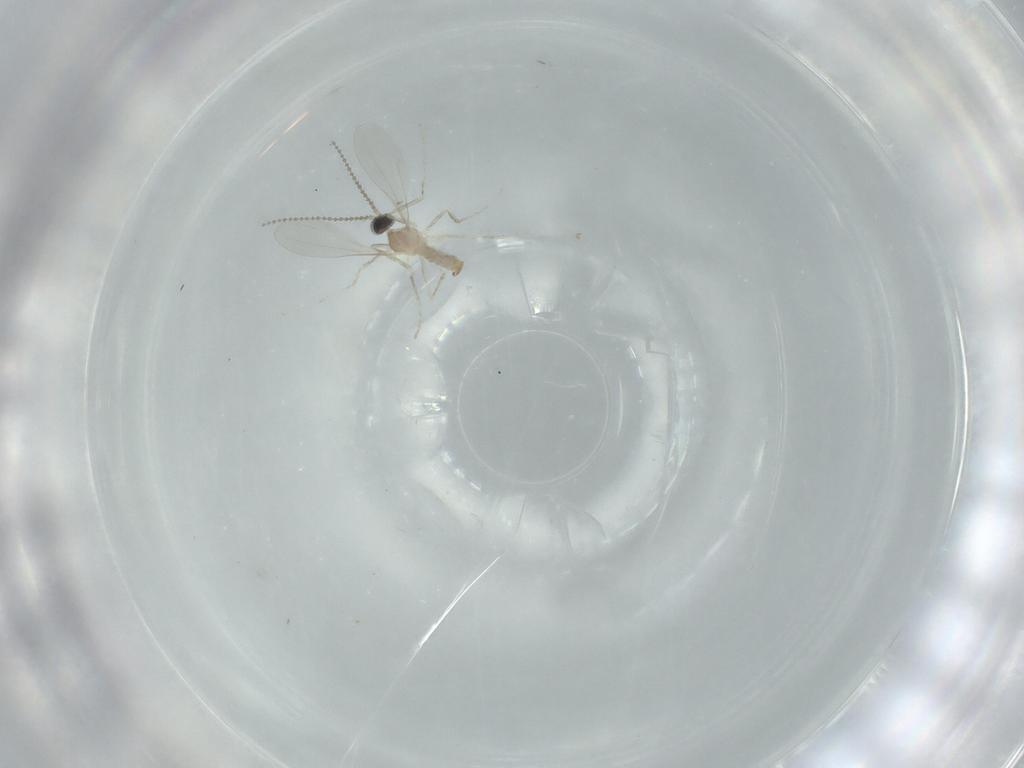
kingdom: Animalia
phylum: Arthropoda
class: Insecta
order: Diptera
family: Cecidomyiidae
